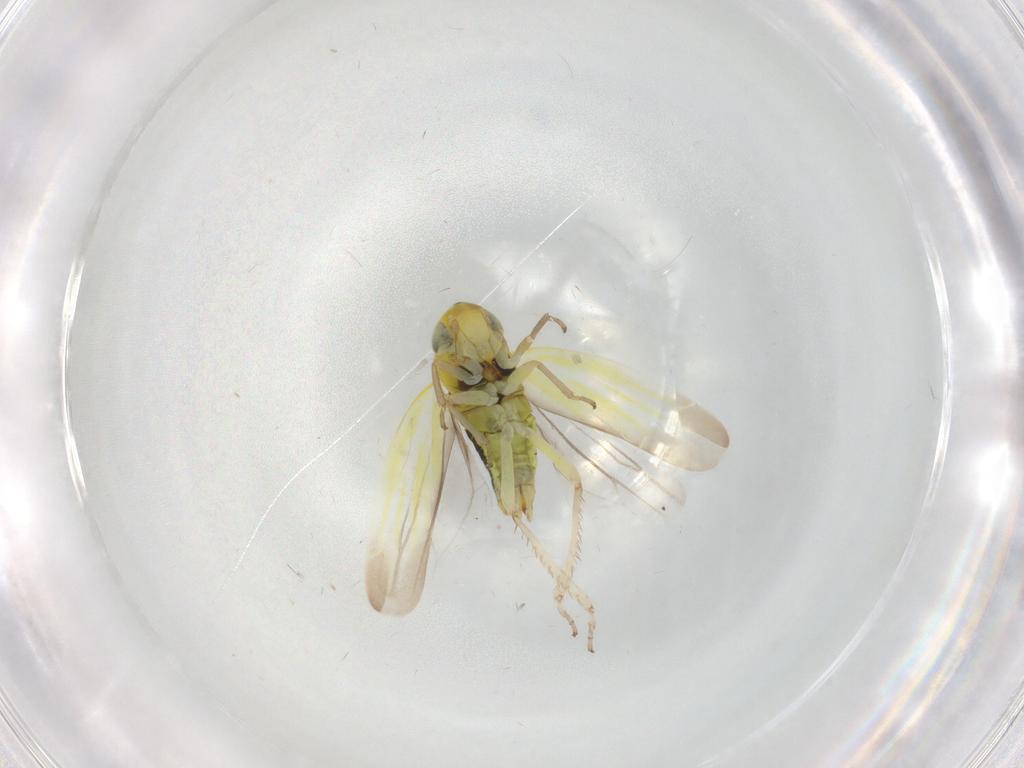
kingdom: Animalia
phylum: Arthropoda
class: Insecta
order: Hemiptera
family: Cicadellidae
